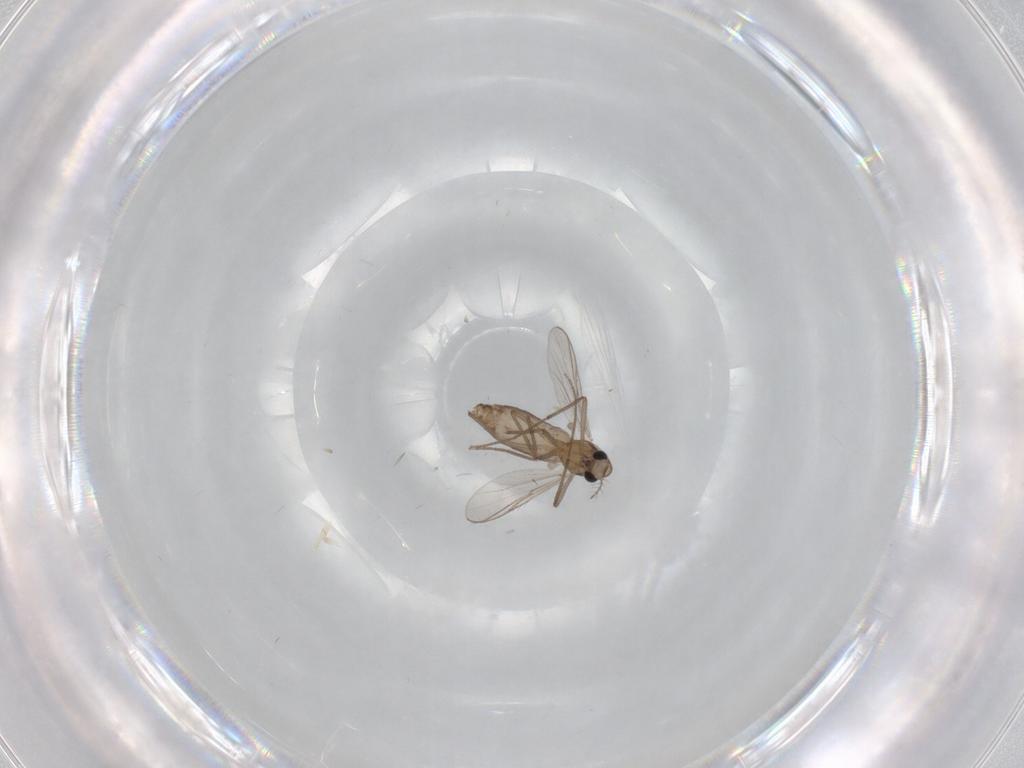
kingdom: Animalia
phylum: Arthropoda
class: Insecta
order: Diptera
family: Chironomidae
